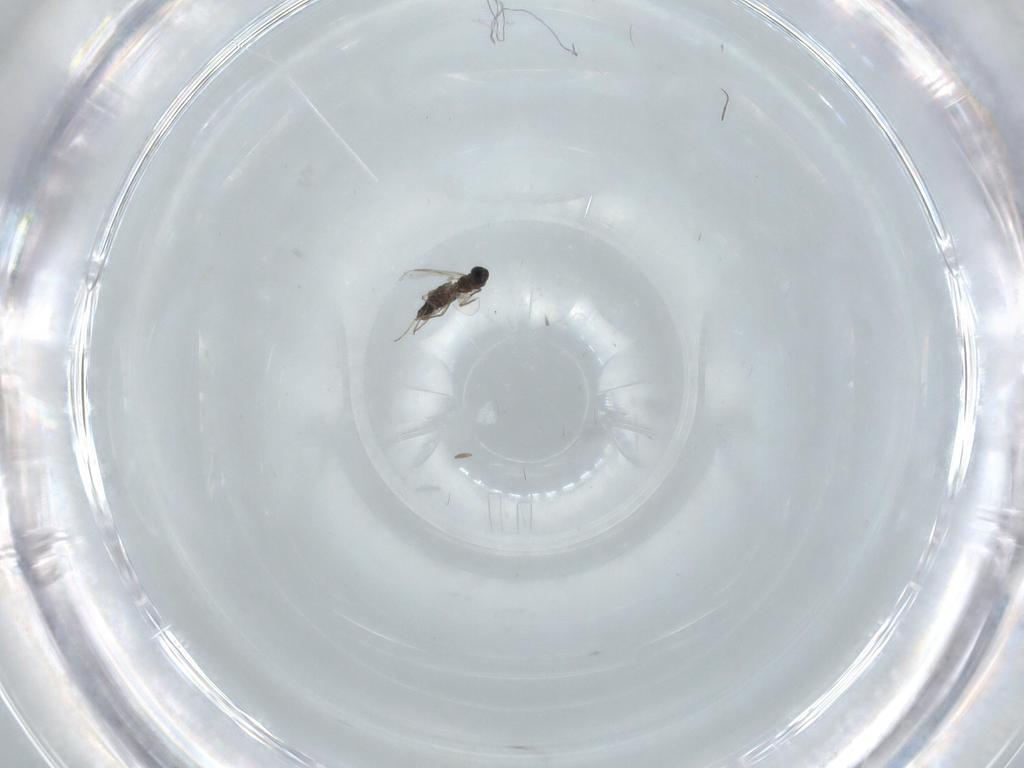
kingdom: Animalia
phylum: Arthropoda
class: Insecta
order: Diptera
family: Chironomidae
